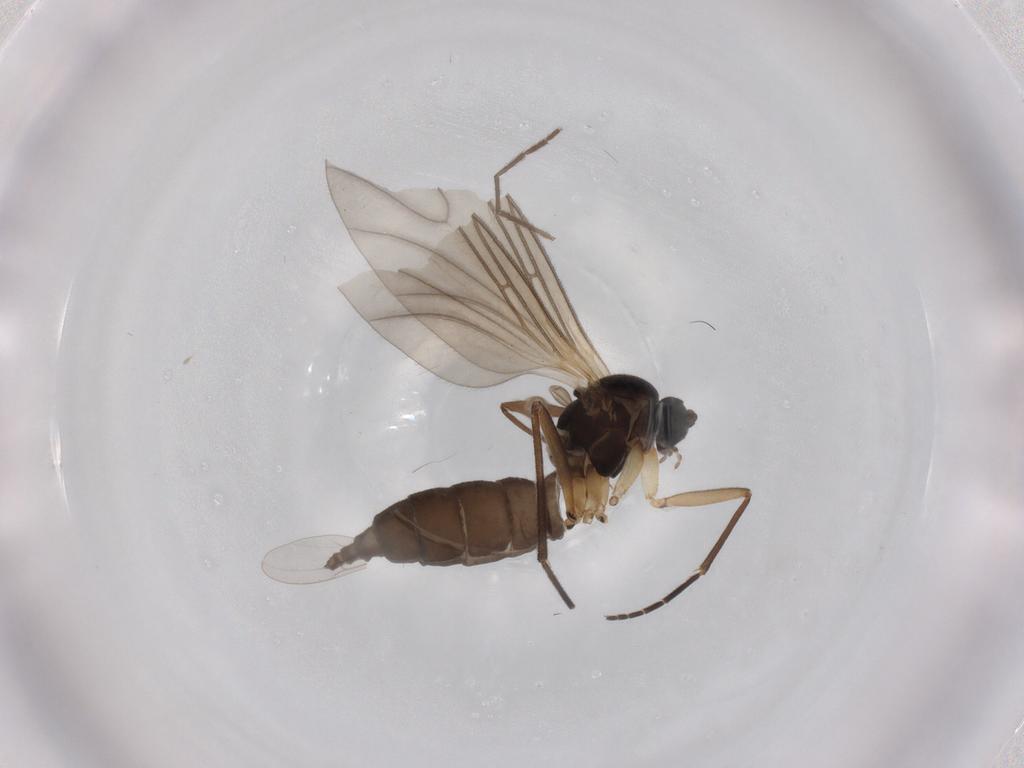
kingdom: Animalia
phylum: Arthropoda
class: Insecta
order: Diptera
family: Sciaridae
